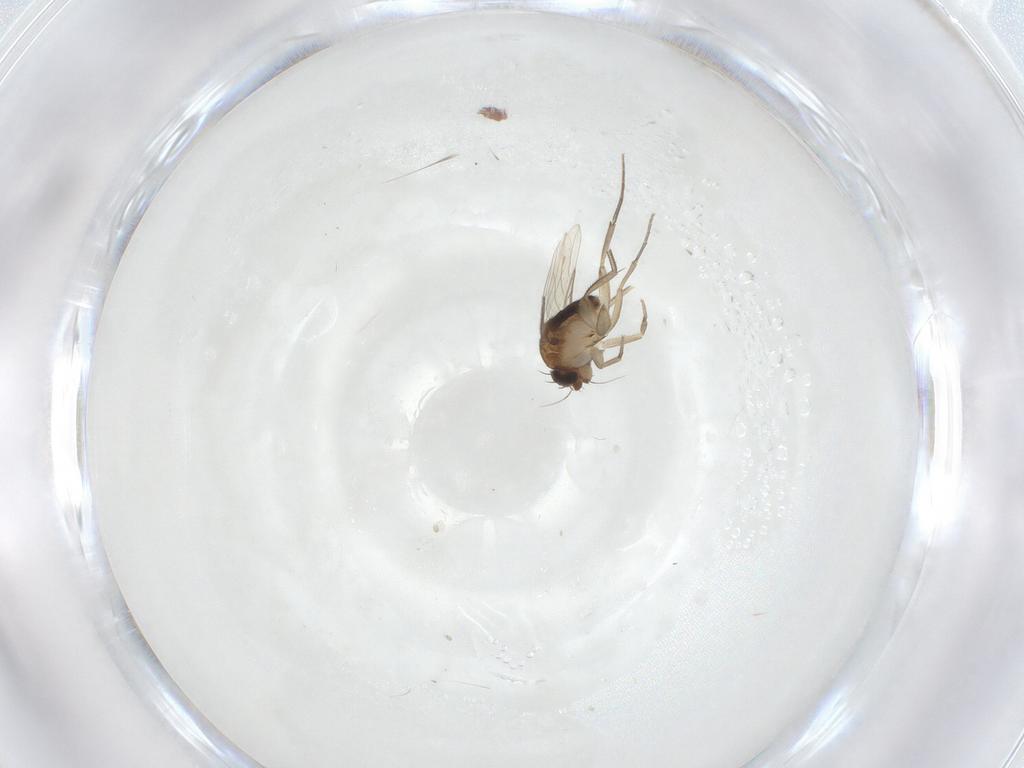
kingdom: Animalia
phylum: Arthropoda
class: Insecta
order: Diptera
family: Phoridae
